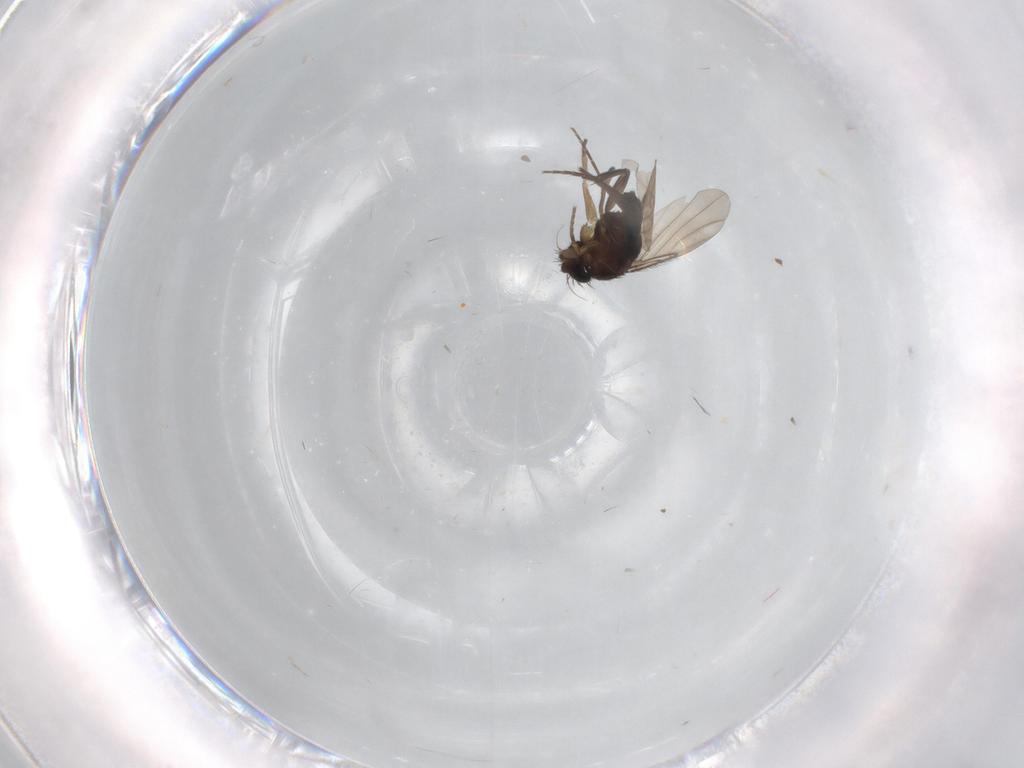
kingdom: Animalia
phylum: Arthropoda
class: Insecta
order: Diptera
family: Phoridae
